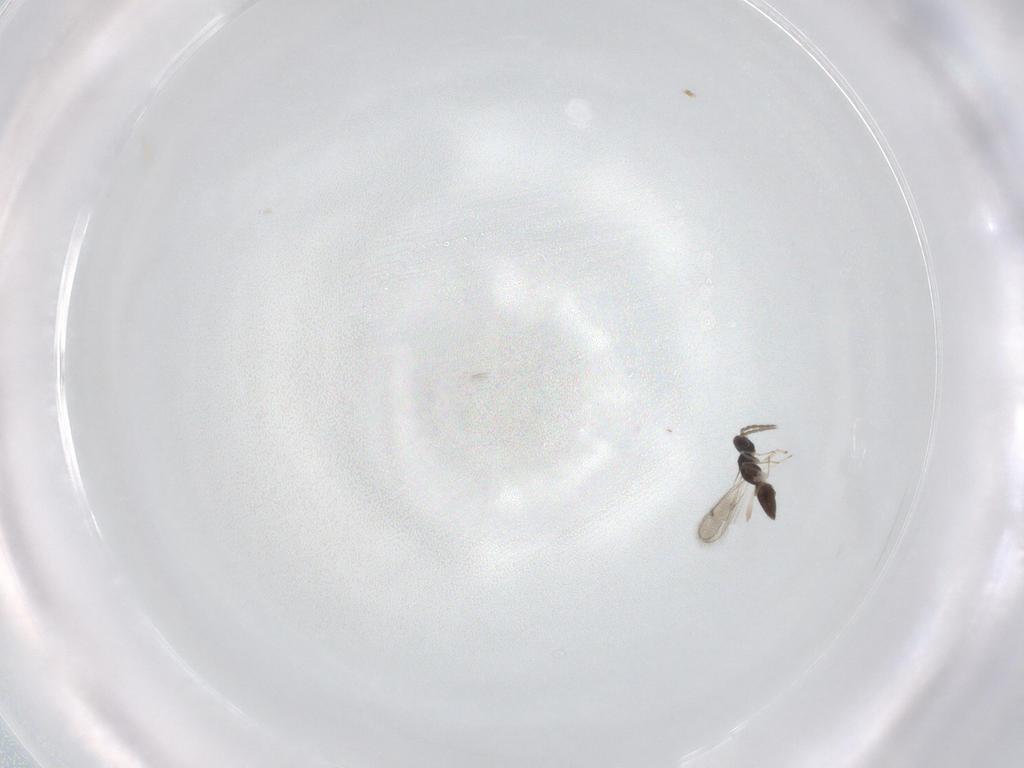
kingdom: Animalia
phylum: Arthropoda
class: Insecta
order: Hymenoptera
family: Eulophidae
